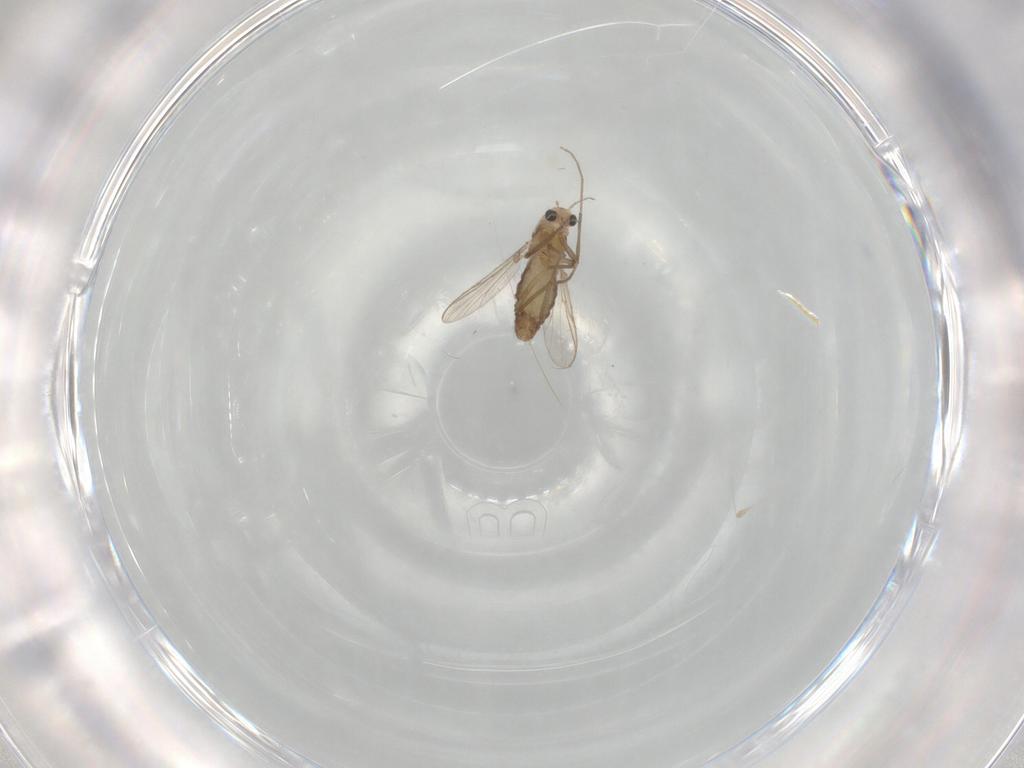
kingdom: Animalia
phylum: Arthropoda
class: Insecta
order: Diptera
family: Chironomidae
